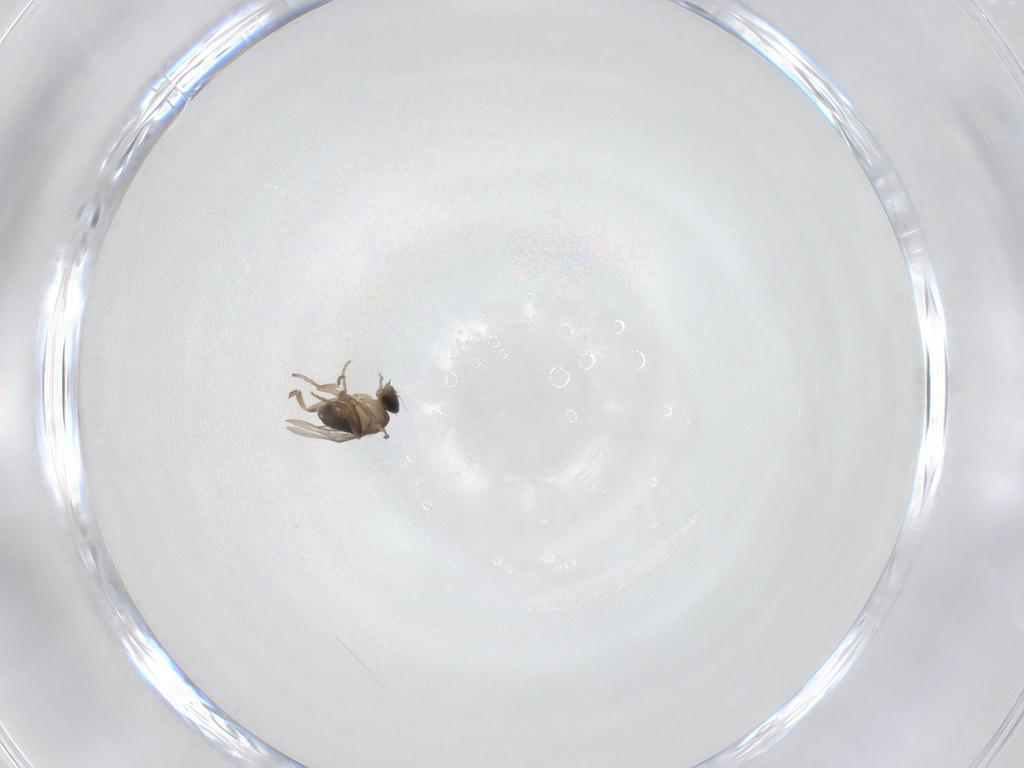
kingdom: Animalia
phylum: Arthropoda
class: Insecta
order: Diptera
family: Phoridae
